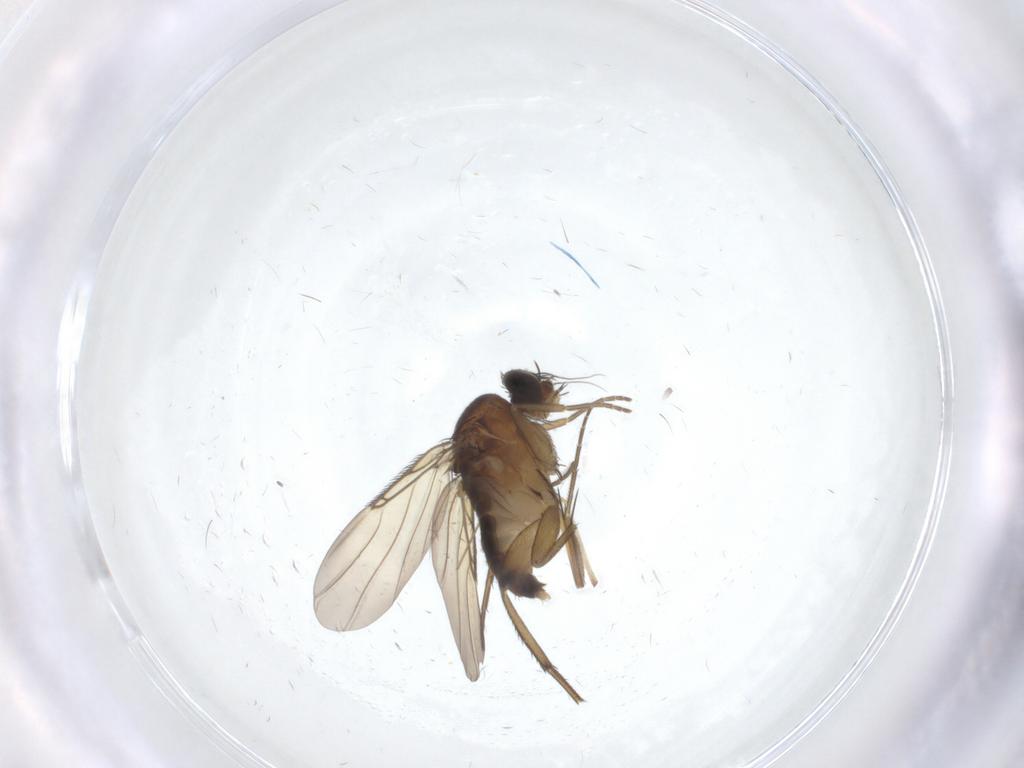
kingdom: Animalia
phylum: Arthropoda
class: Insecta
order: Diptera
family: Phoridae
